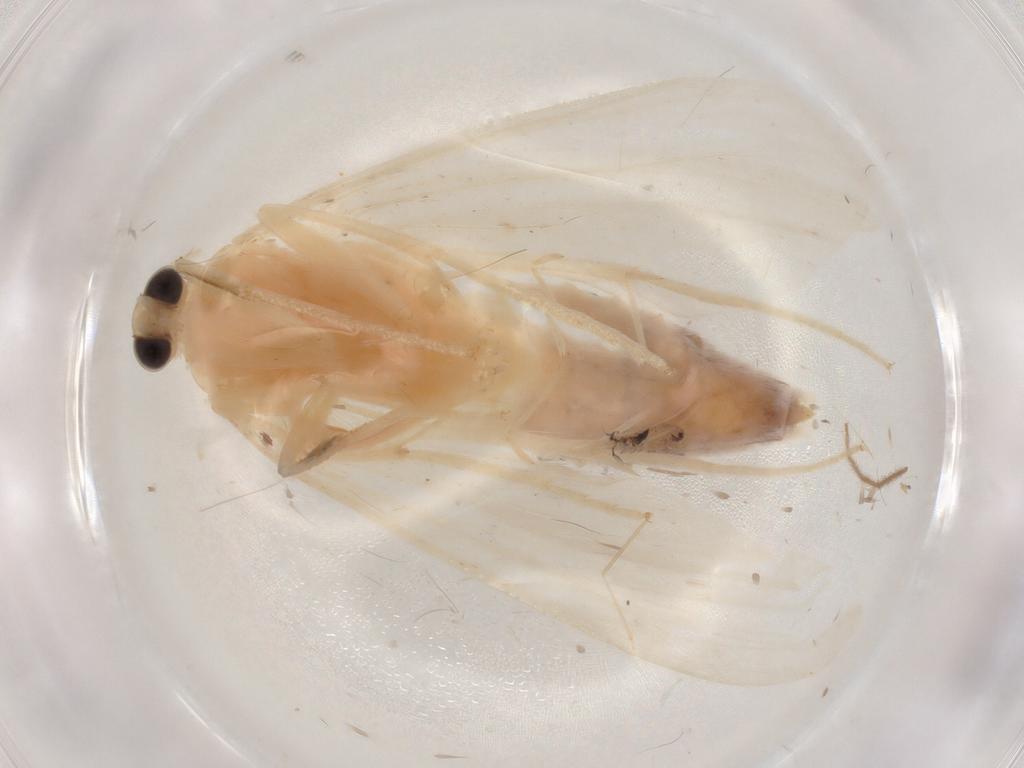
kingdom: Animalia
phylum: Arthropoda
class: Insecta
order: Lepidoptera
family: Crambidae
